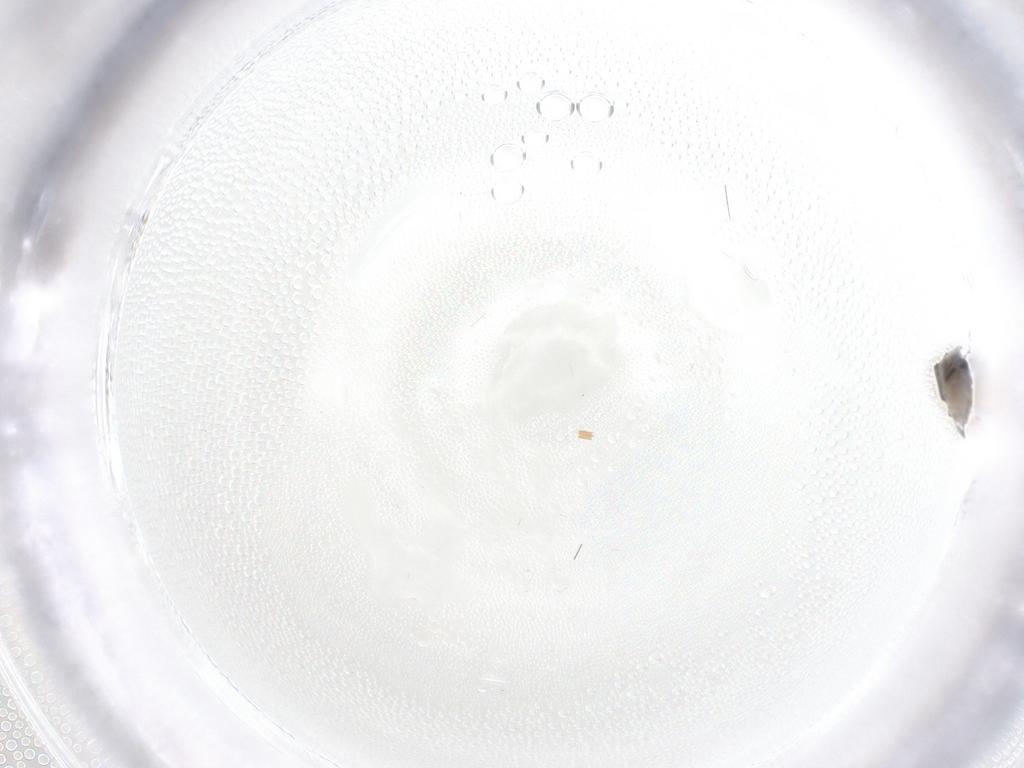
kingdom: Animalia
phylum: Arthropoda
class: Insecta
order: Diptera
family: Psychodidae
